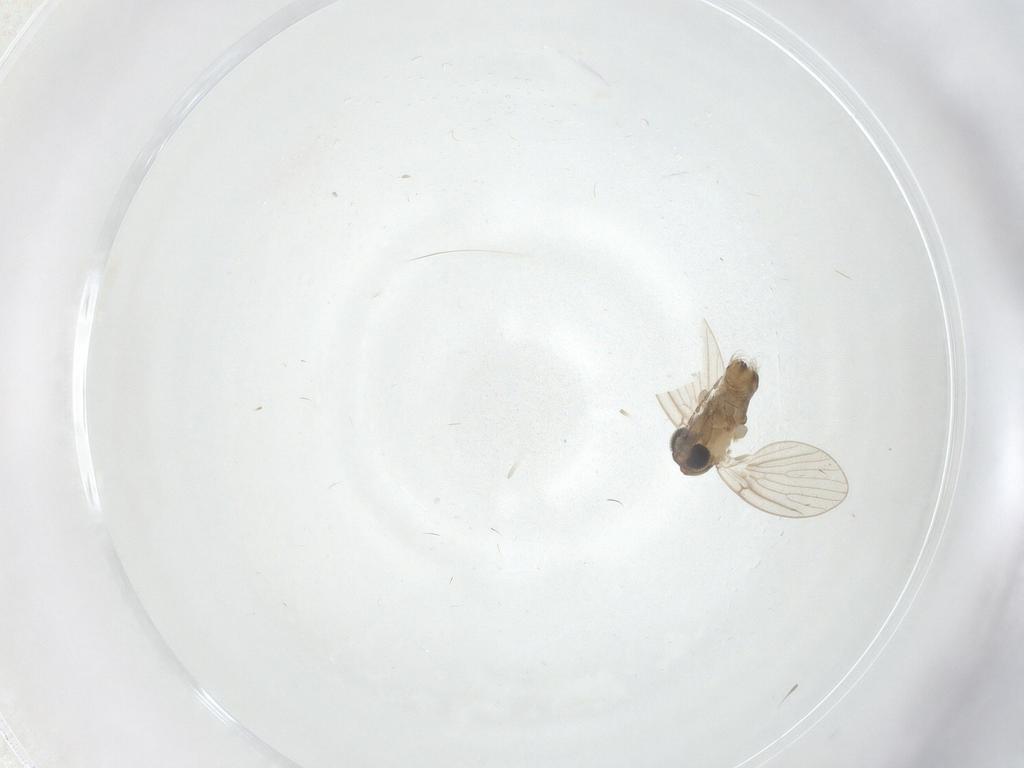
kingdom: Animalia
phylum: Arthropoda
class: Insecta
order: Diptera
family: Psychodidae
